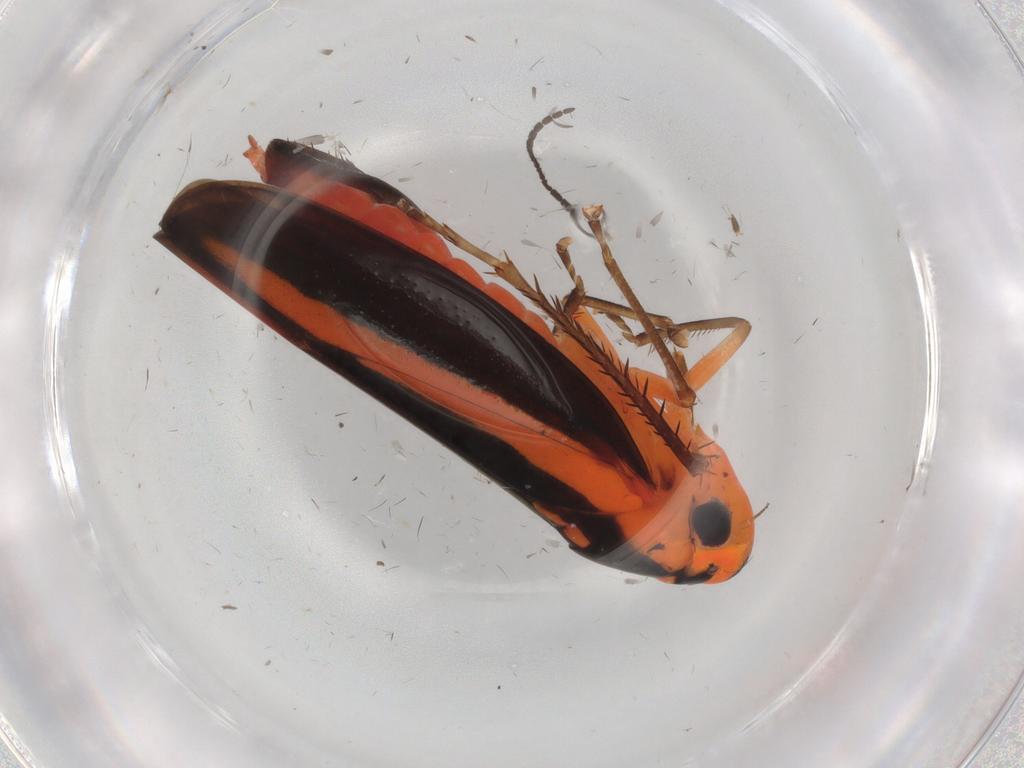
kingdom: Animalia
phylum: Arthropoda
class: Insecta
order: Hemiptera
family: Cicadellidae
